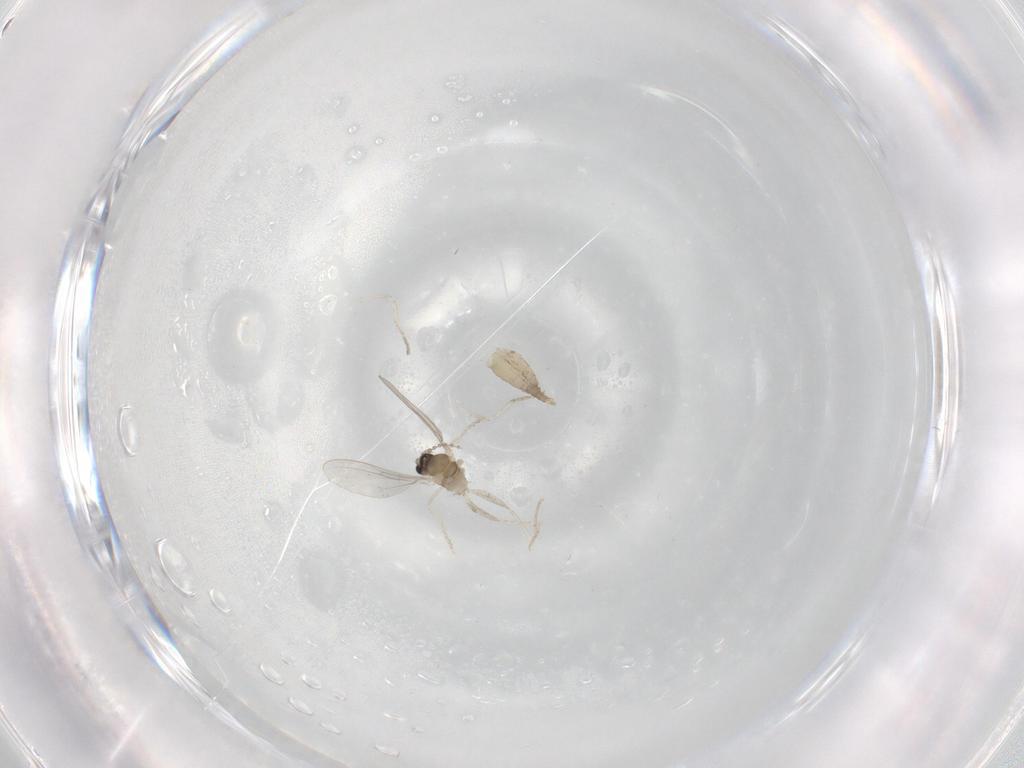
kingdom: Animalia
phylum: Arthropoda
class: Insecta
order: Diptera
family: Cecidomyiidae
